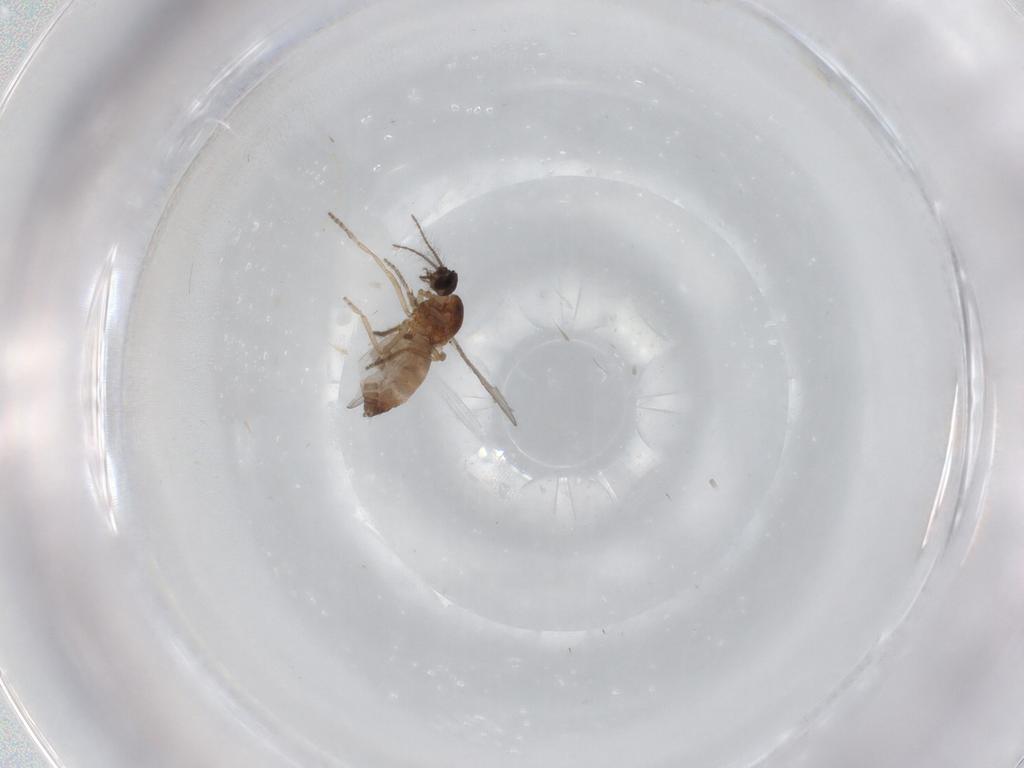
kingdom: Animalia
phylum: Arthropoda
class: Insecta
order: Diptera
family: Ceratopogonidae
